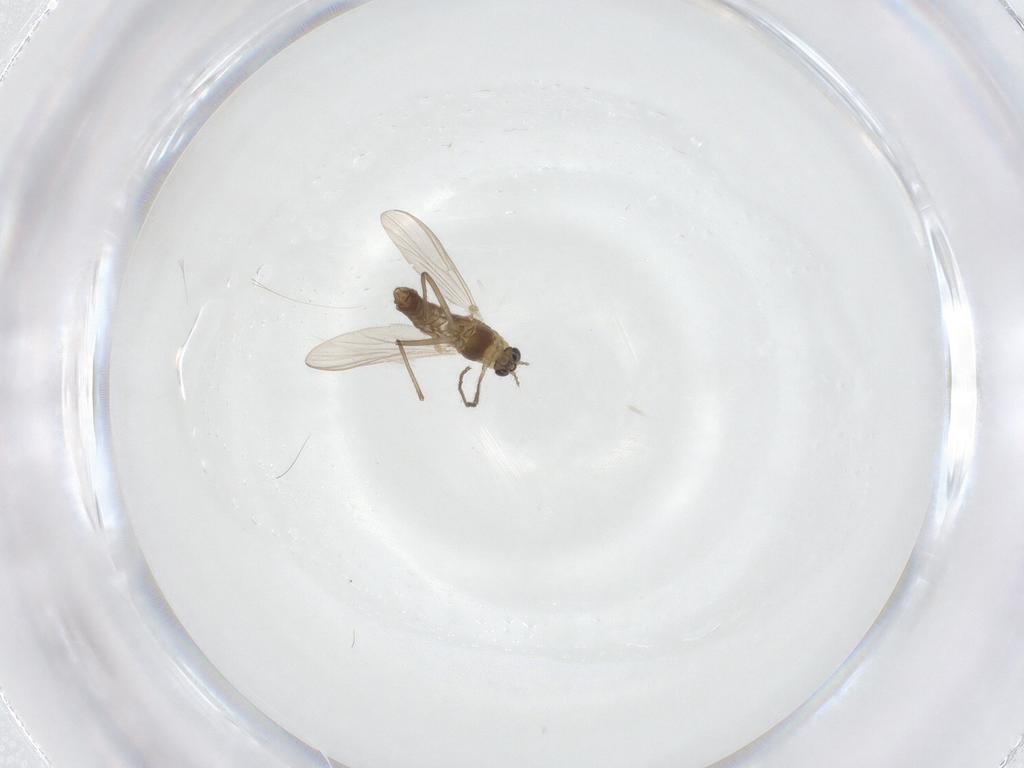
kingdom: Animalia
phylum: Arthropoda
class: Insecta
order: Diptera
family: Chironomidae
